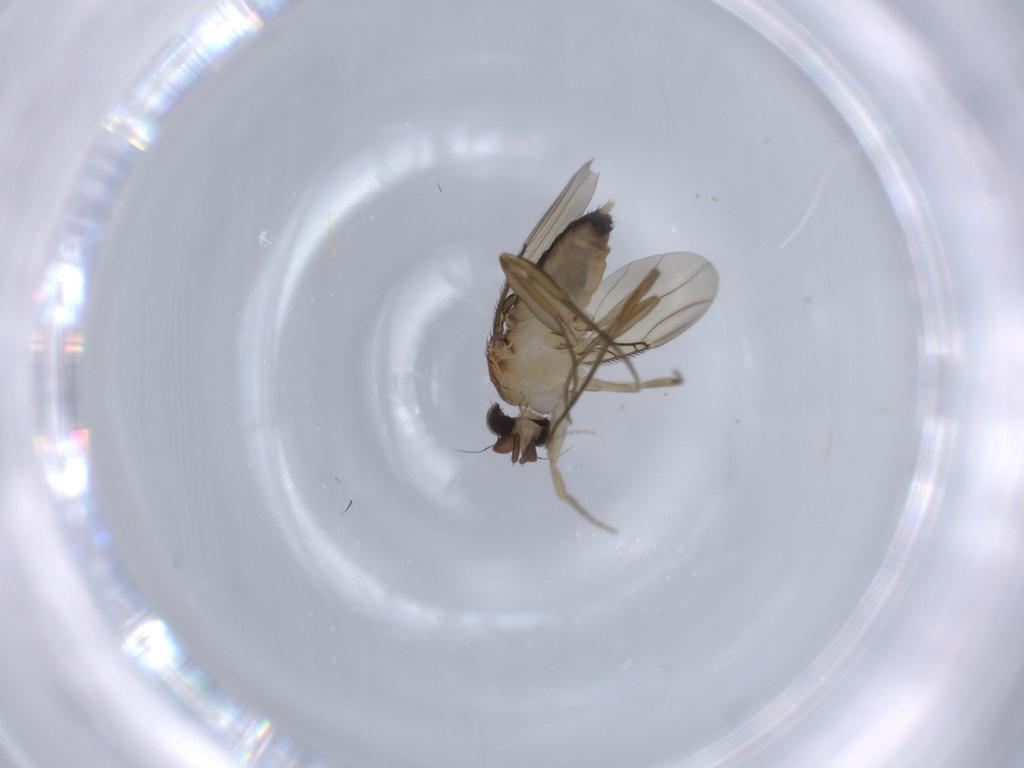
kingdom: Animalia
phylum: Arthropoda
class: Insecta
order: Diptera
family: Phoridae
